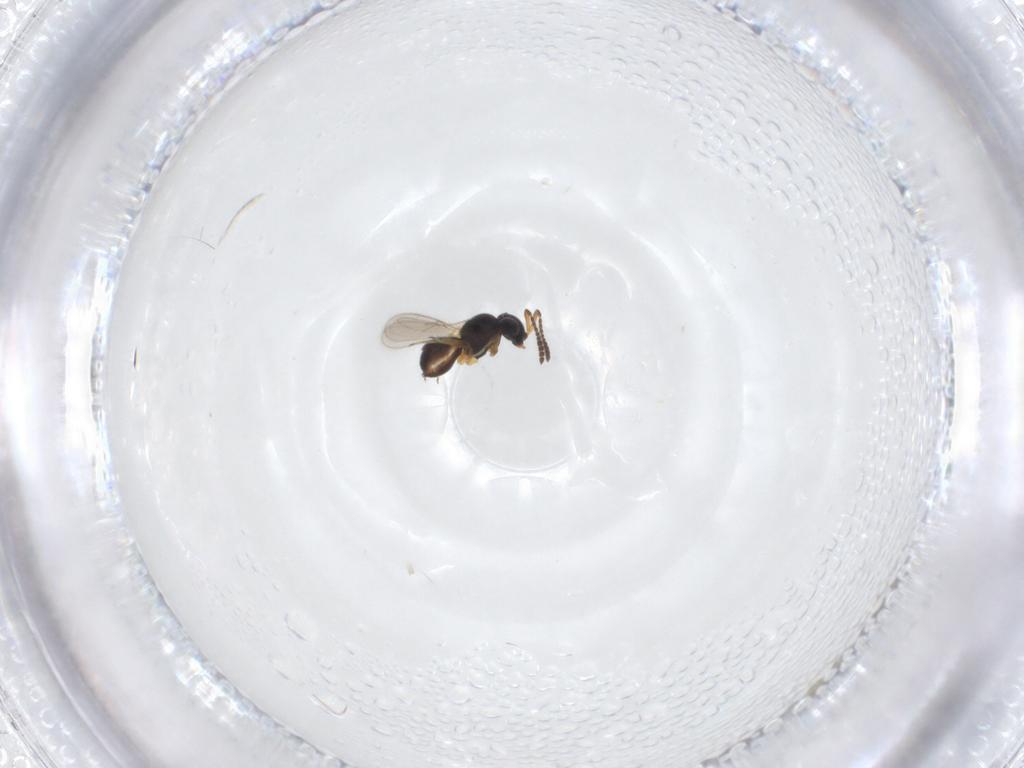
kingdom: Animalia
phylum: Arthropoda
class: Insecta
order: Hymenoptera
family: Scelionidae
